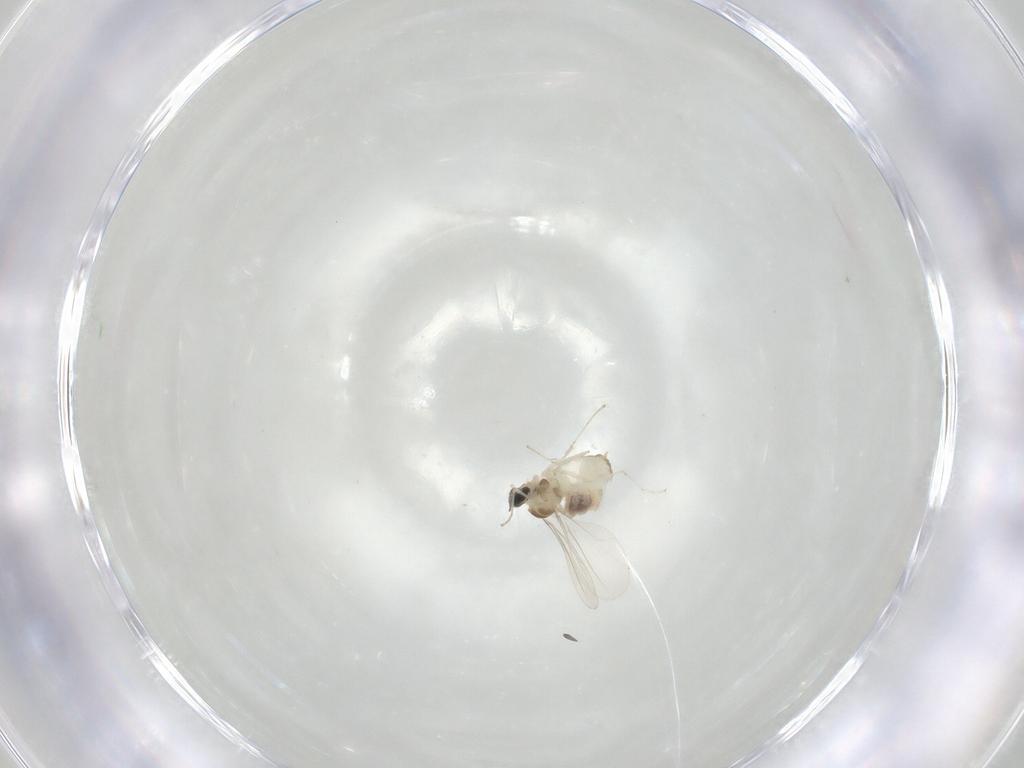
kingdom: Animalia
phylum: Arthropoda
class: Insecta
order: Diptera
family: Cecidomyiidae
